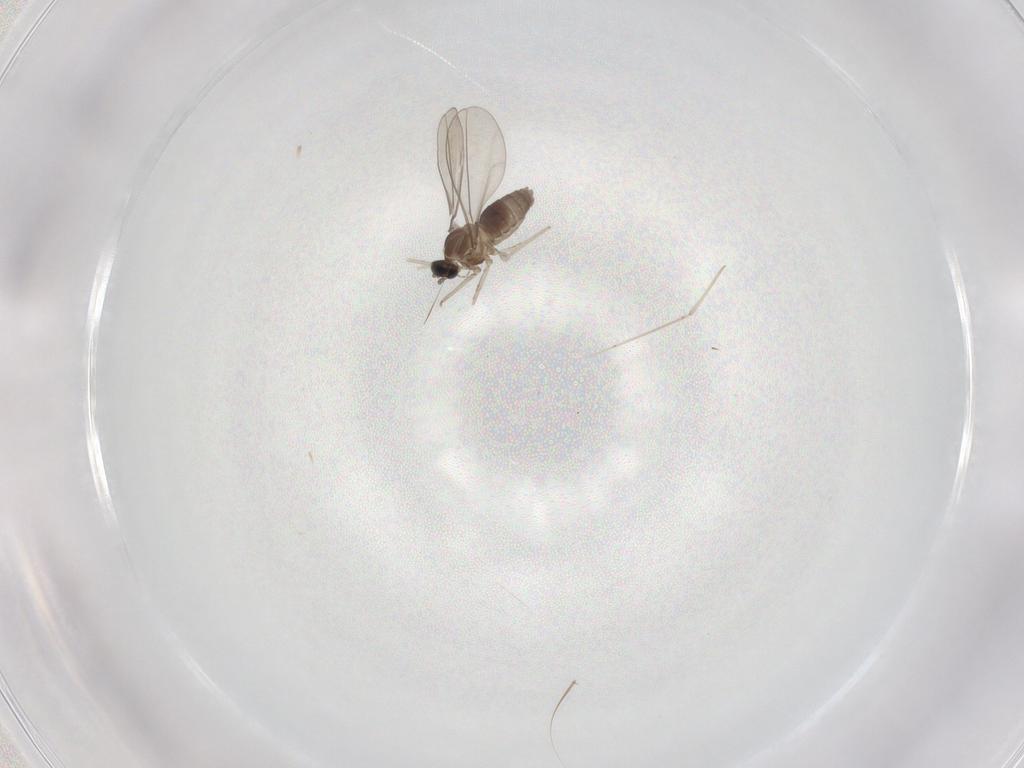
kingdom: Animalia
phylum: Arthropoda
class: Insecta
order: Diptera
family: Cecidomyiidae
